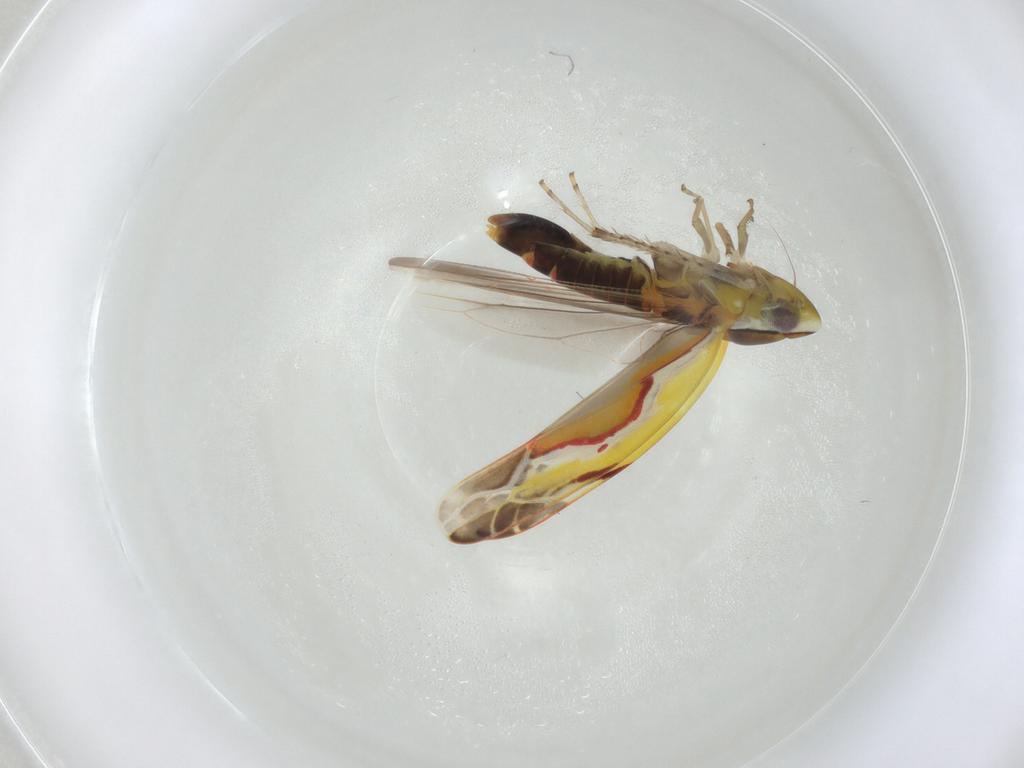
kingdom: Animalia
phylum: Arthropoda
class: Insecta
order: Hemiptera
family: Cicadellidae
